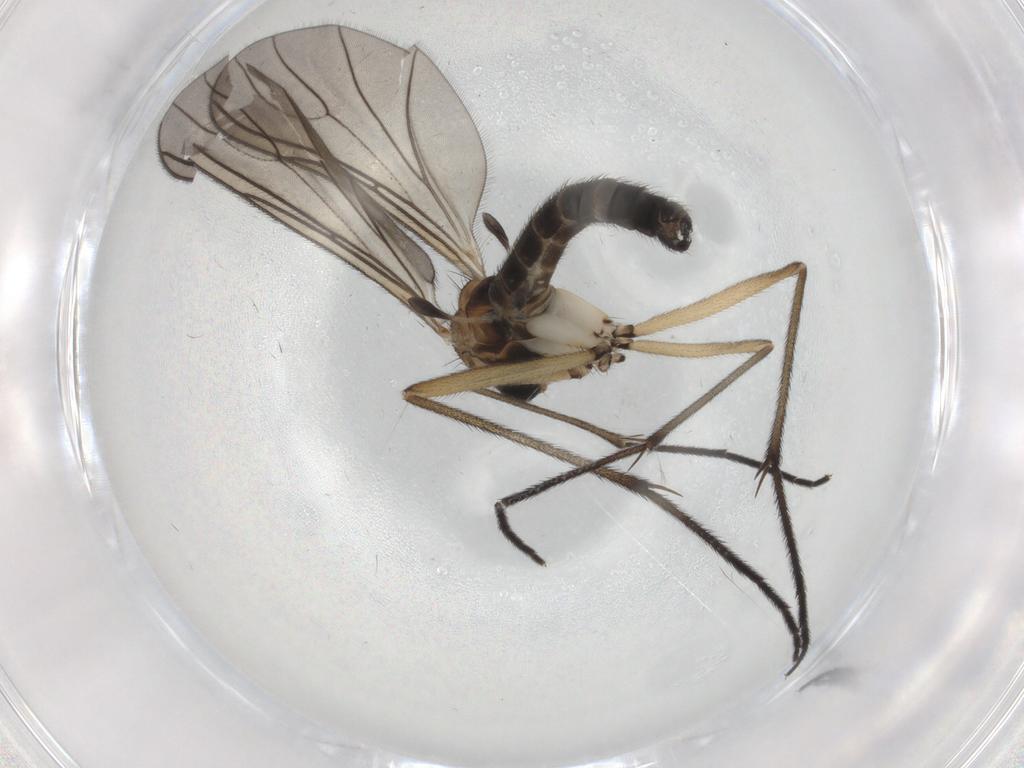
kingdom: Animalia
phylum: Arthropoda
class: Insecta
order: Diptera
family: Sciaridae
